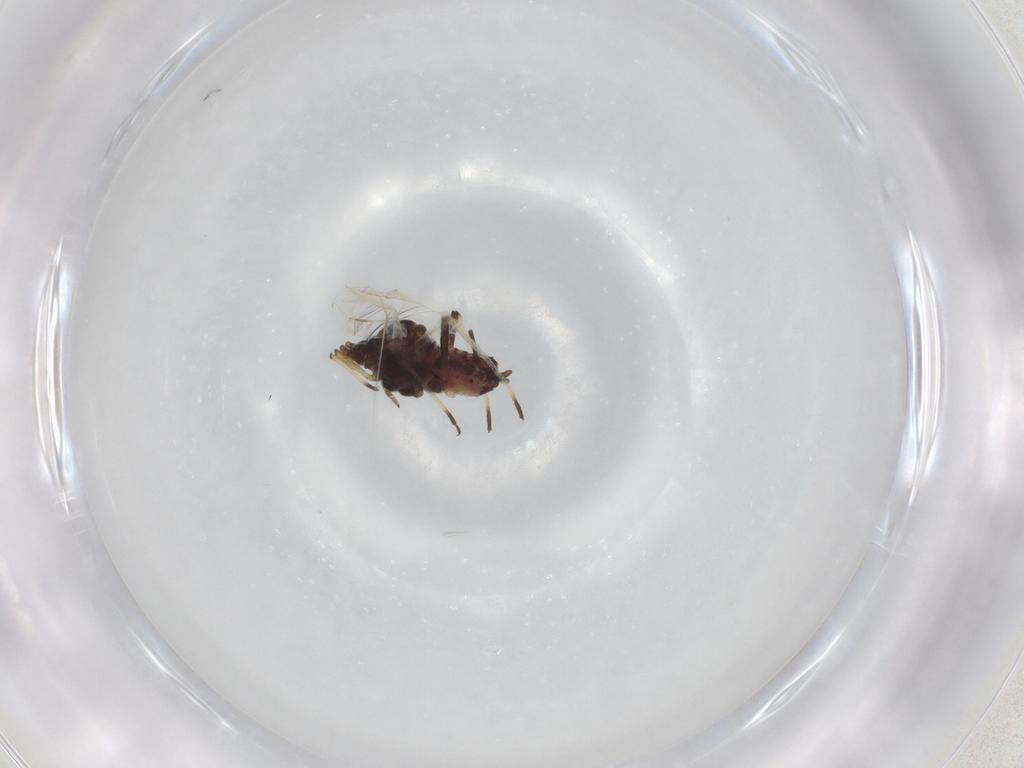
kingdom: Animalia
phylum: Arthropoda
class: Insecta
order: Hemiptera
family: Aphididae
